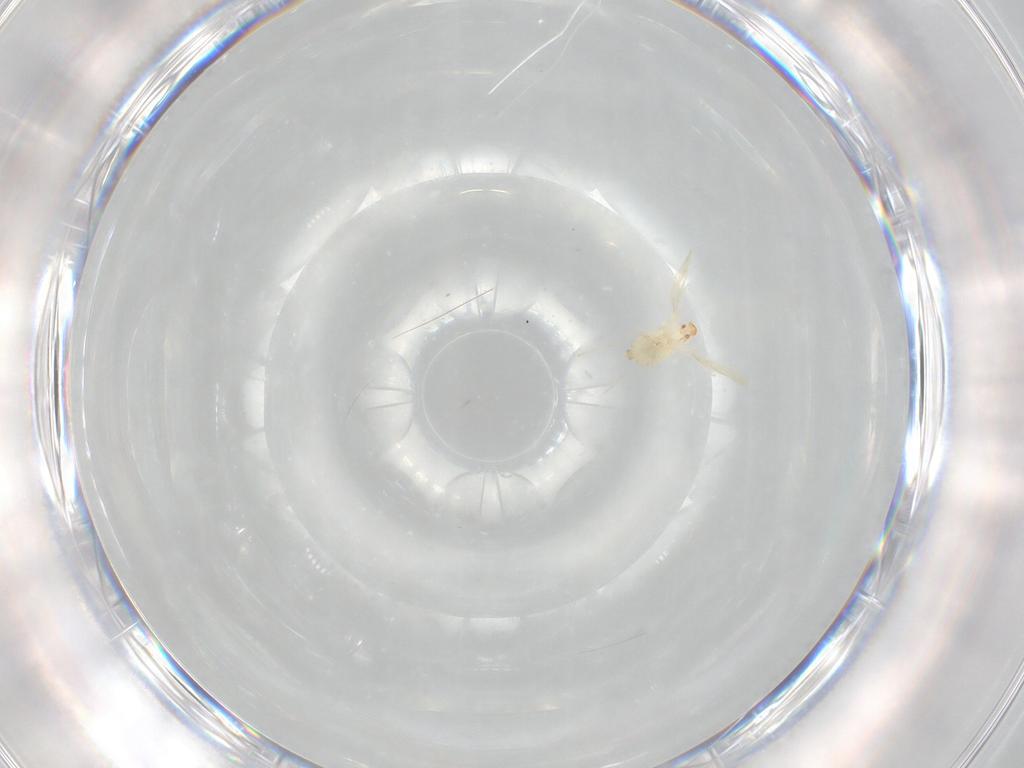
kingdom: Animalia
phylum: Arthropoda
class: Insecta
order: Diptera
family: Cecidomyiidae
